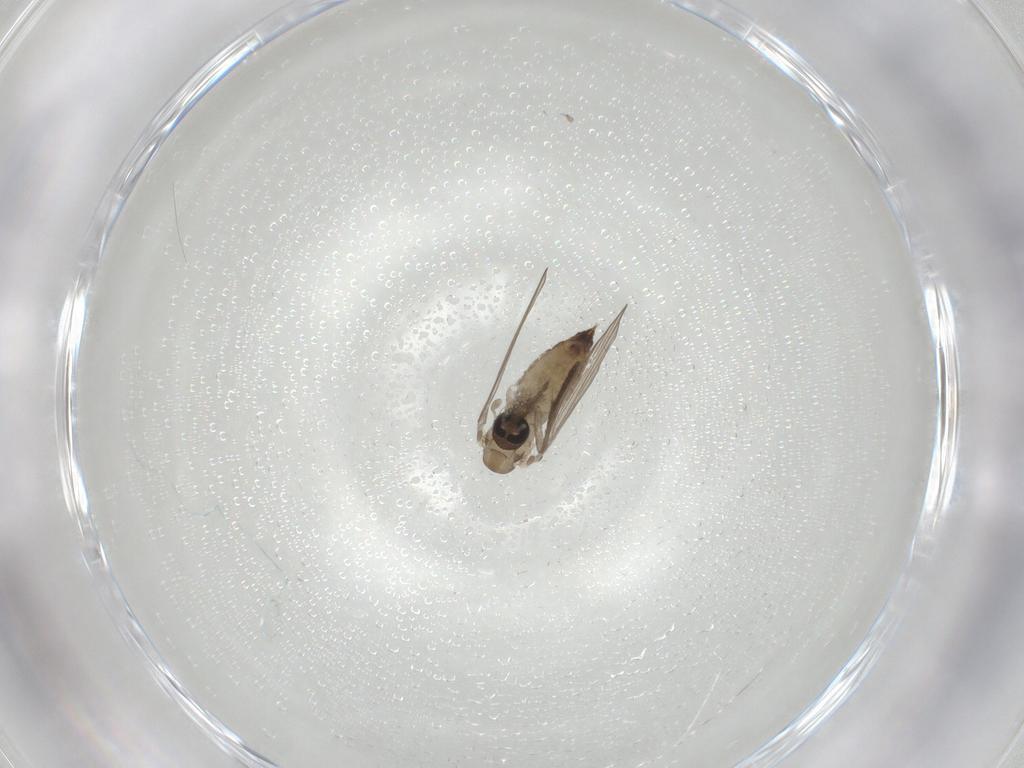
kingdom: Animalia
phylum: Arthropoda
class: Insecta
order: Diptera
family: Psychodidae
